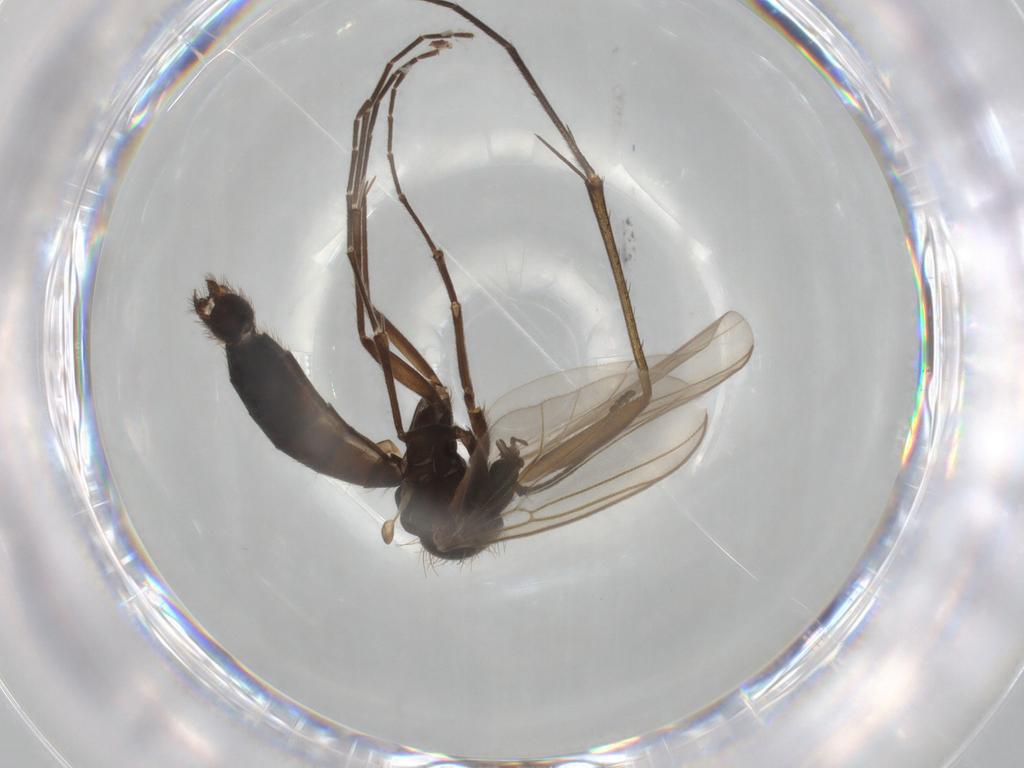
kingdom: Animalia
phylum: Arthropoda
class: Insecta
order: Diptera
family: Mycetophilidae
